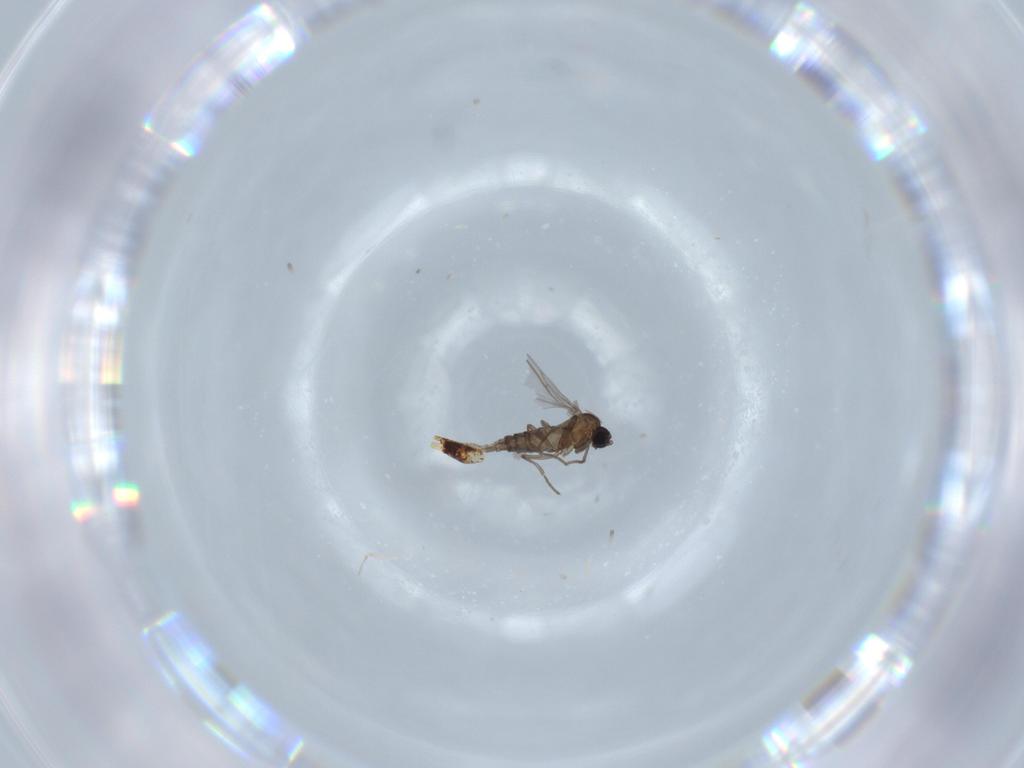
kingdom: Animalia
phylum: Arthropoda
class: Insecta
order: Diptera
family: Sciaridae
